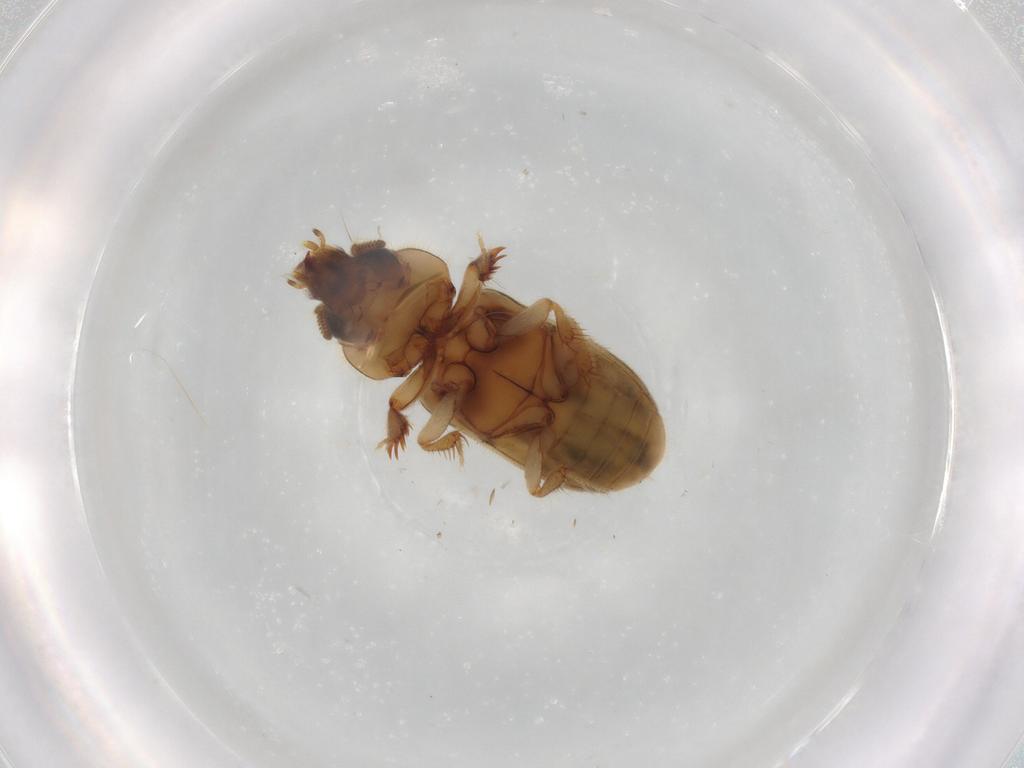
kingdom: Animalia
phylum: Arthropoda
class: Insecta
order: Coleoptera
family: Heteroceridae
